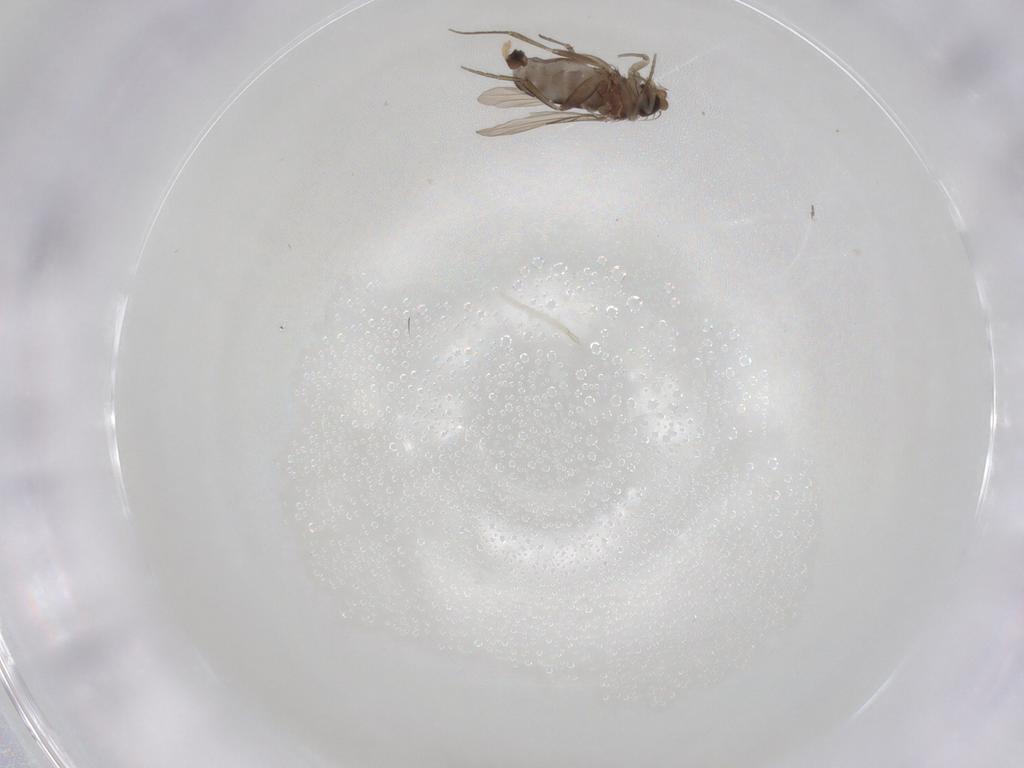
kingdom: Animalia
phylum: Arthropoda
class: Insecta
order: Diptera
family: Phoridae
